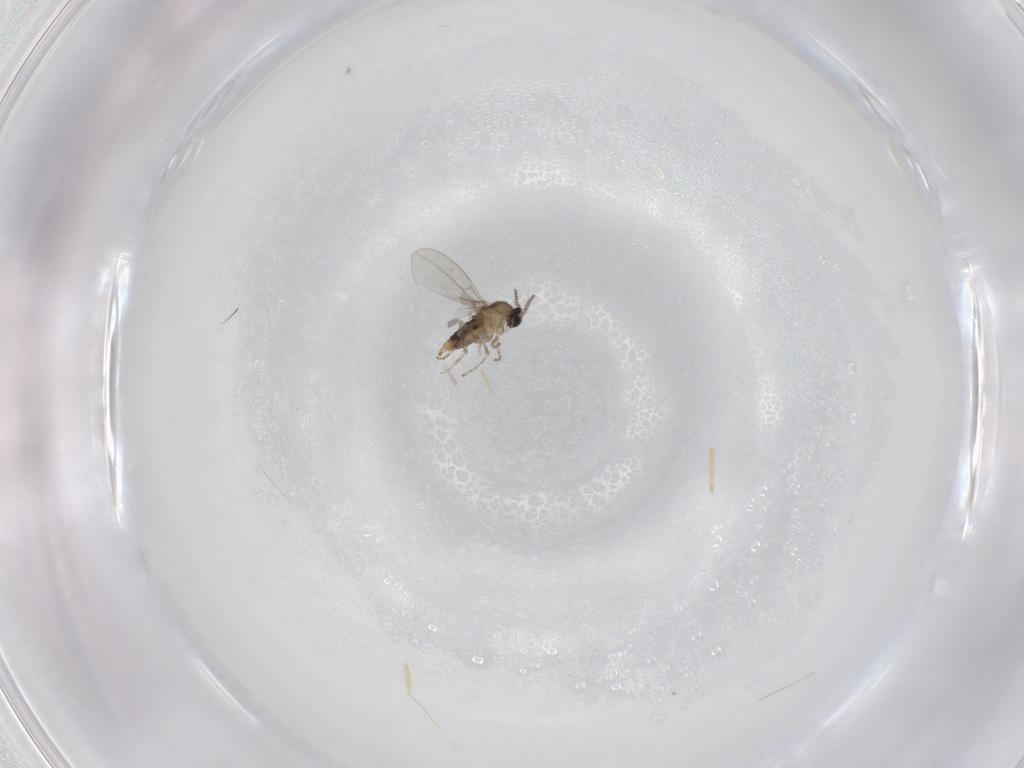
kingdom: Animalia
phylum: Arthropoda
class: Insecta
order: Diptera
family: Cecidomyiidae
